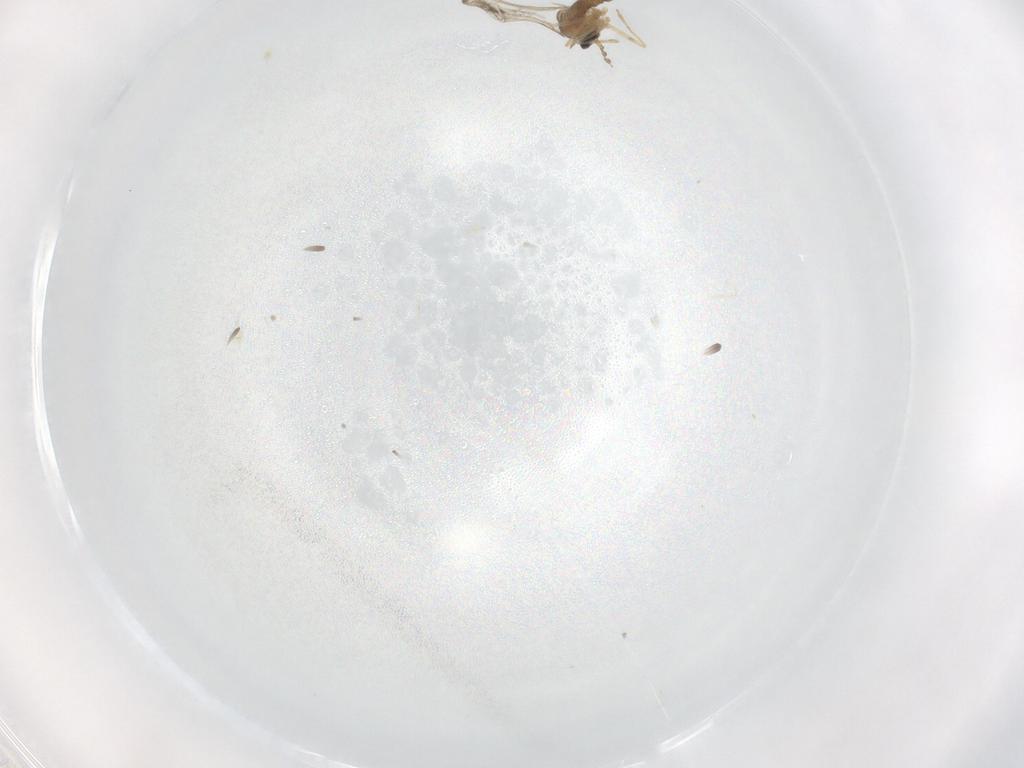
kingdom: Animalia
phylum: Arthropoda
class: Insecta
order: Diptera
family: Cecidomyiidae
